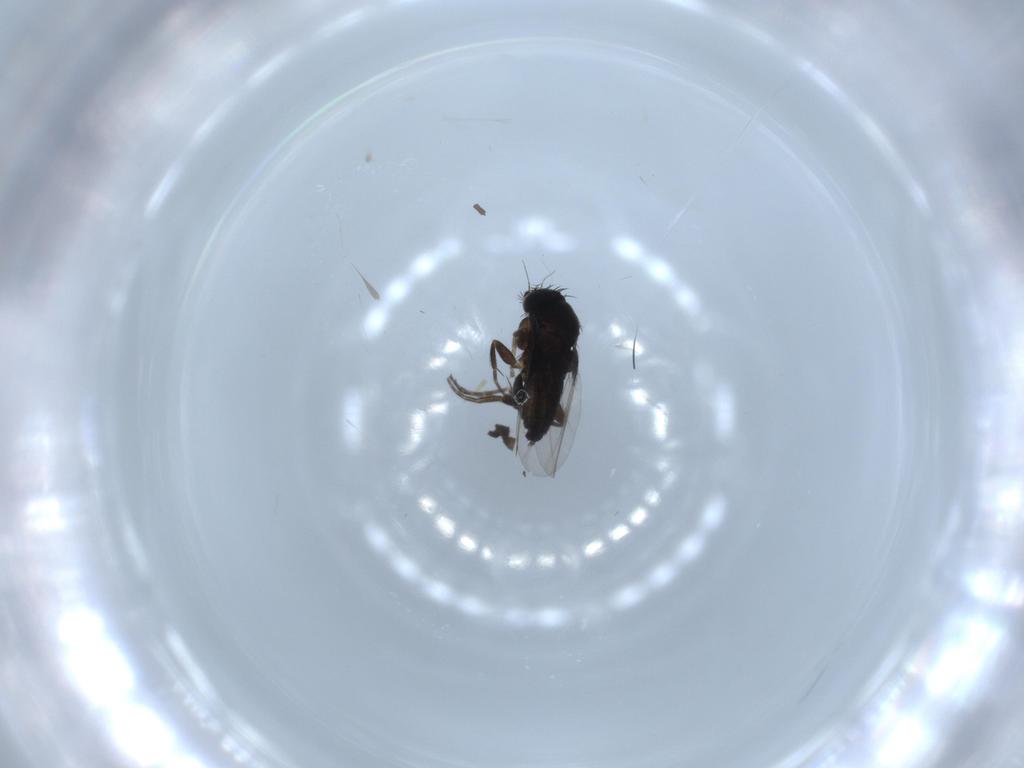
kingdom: Animalia
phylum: Arthropoda
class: Insecta
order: Diptera
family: Phoridae
